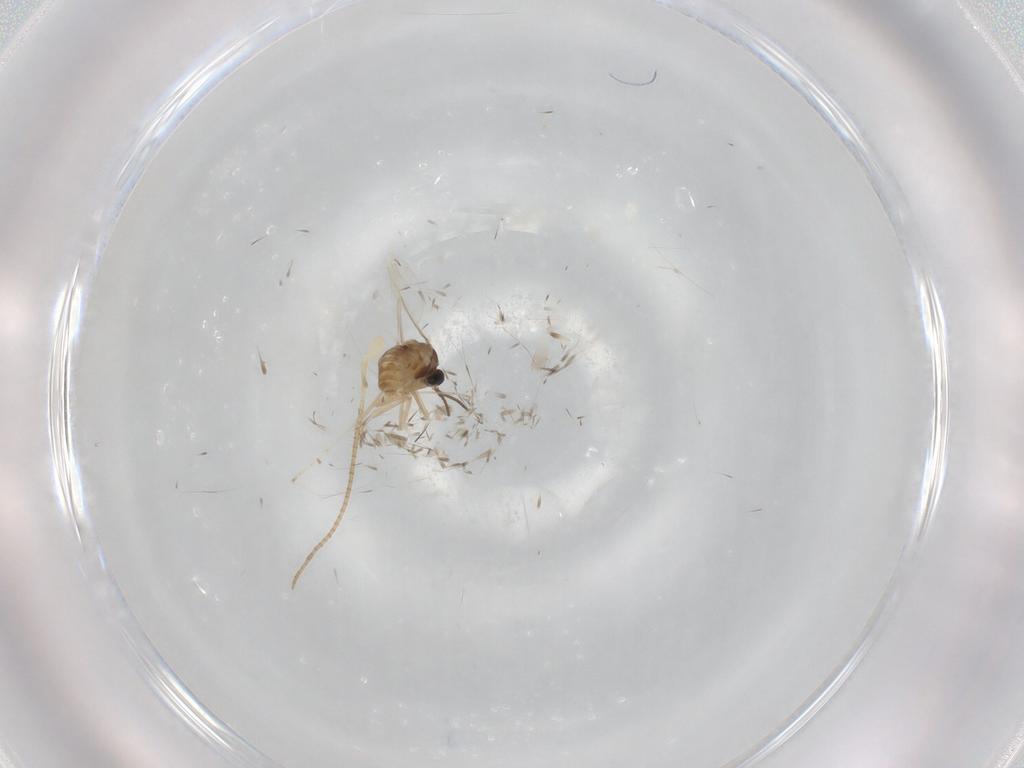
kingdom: Animalia
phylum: Arthropoda
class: Insecta
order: Diptera
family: Cecidomyiidae
